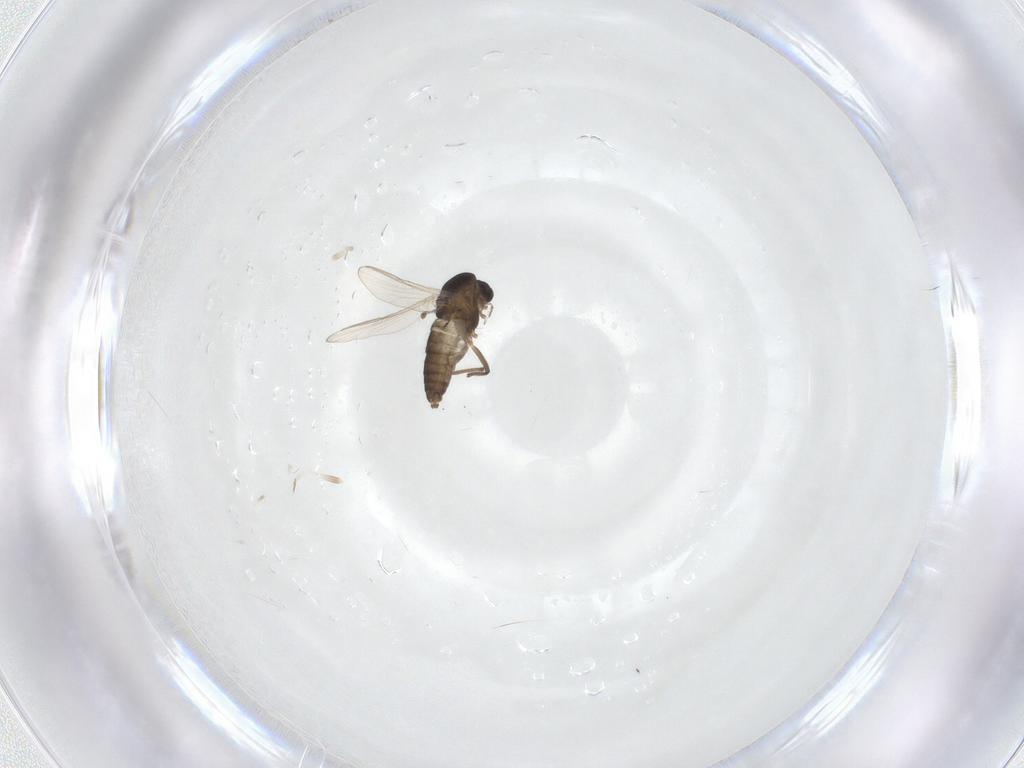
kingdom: Animalia
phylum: Arthropoda
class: Insecta
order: Diptera
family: Chironomidae
